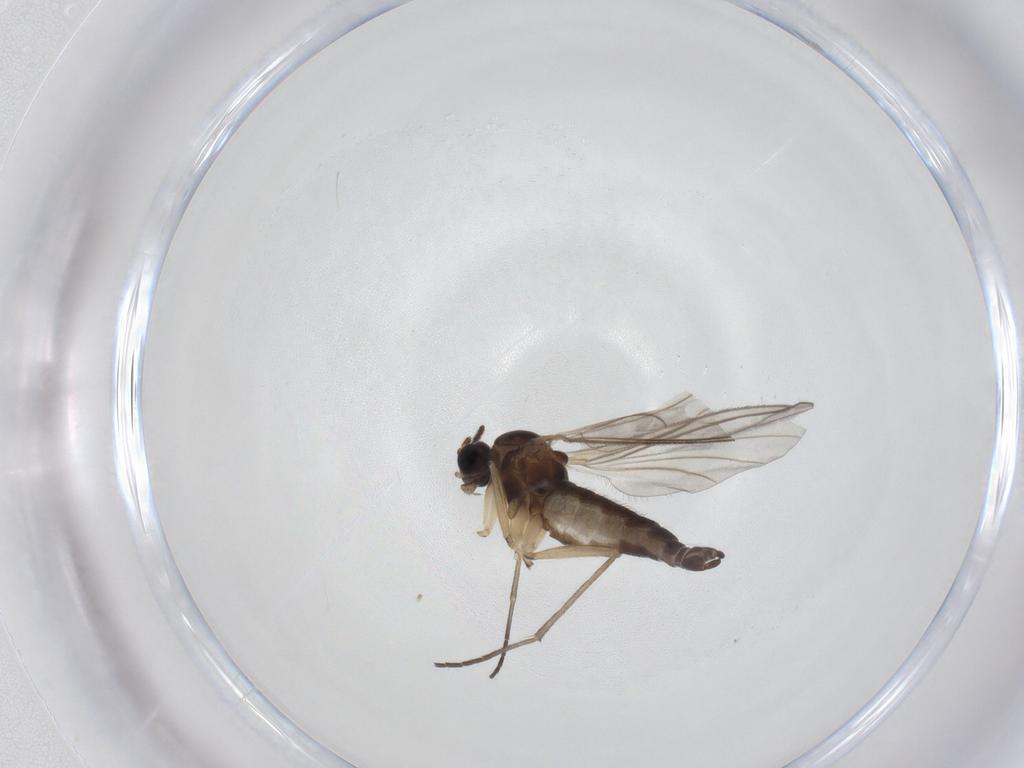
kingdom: Animalia
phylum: Arthropoda
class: Insecta
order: Diptera
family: Sciaridae
